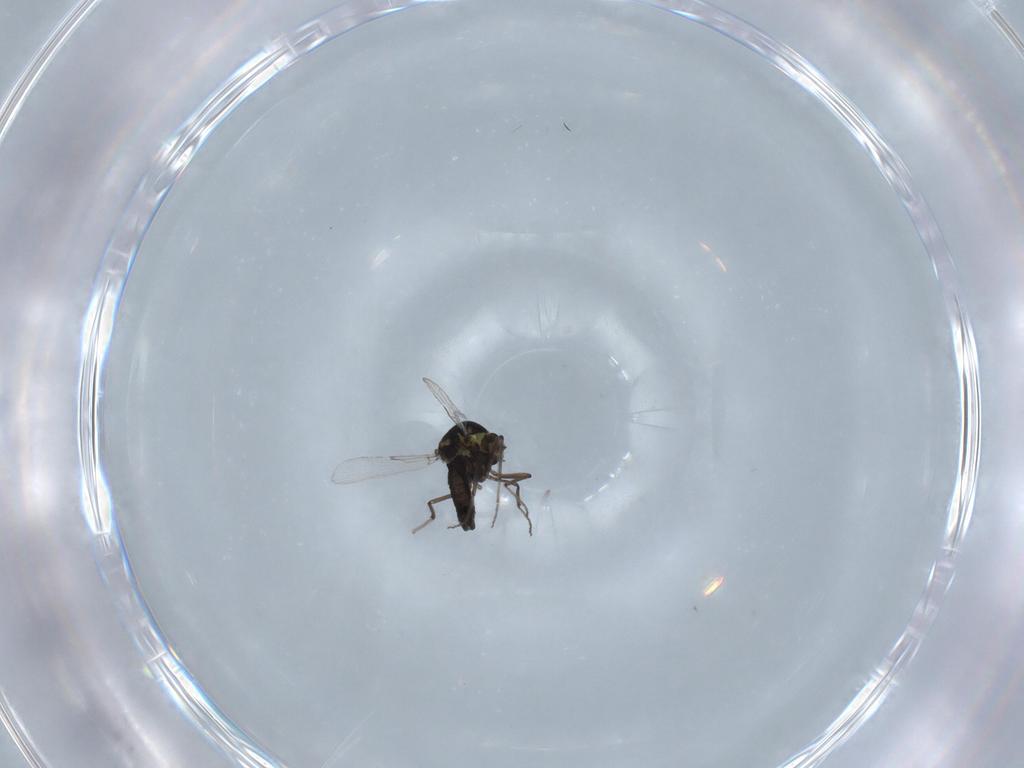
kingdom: Animalia
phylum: Arthropoda
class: Insecta
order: Diptera
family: Ceratopogonidae
